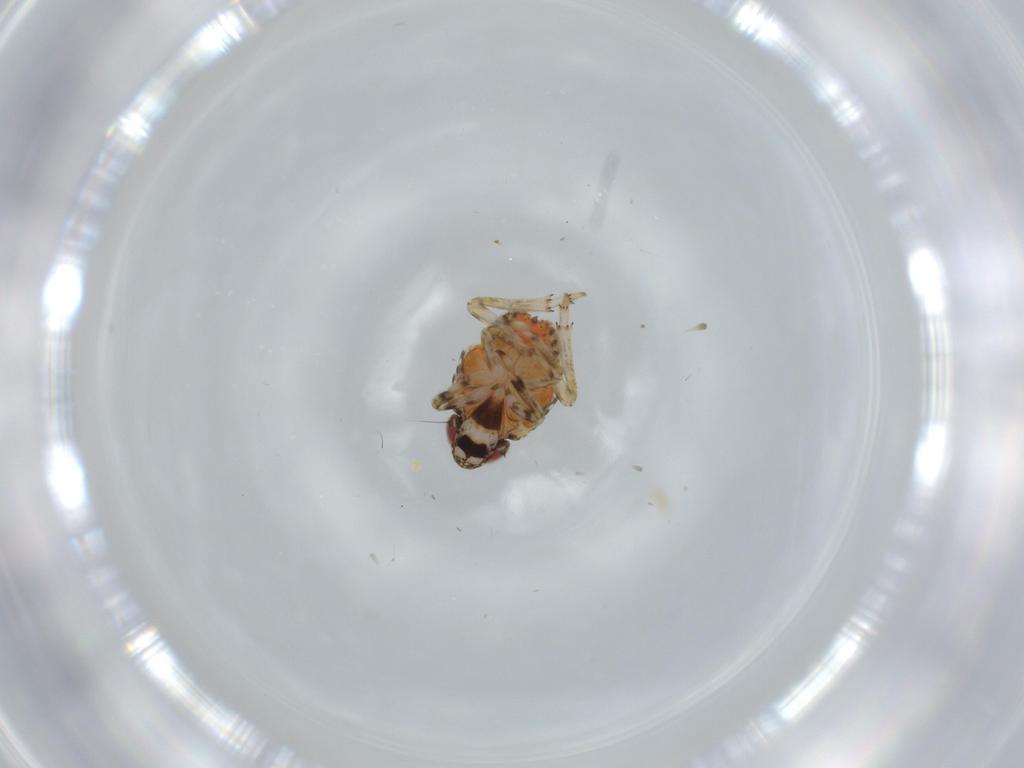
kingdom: Animalia
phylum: Arthropoda
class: Insecta
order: Hemiptera
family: Issidae
